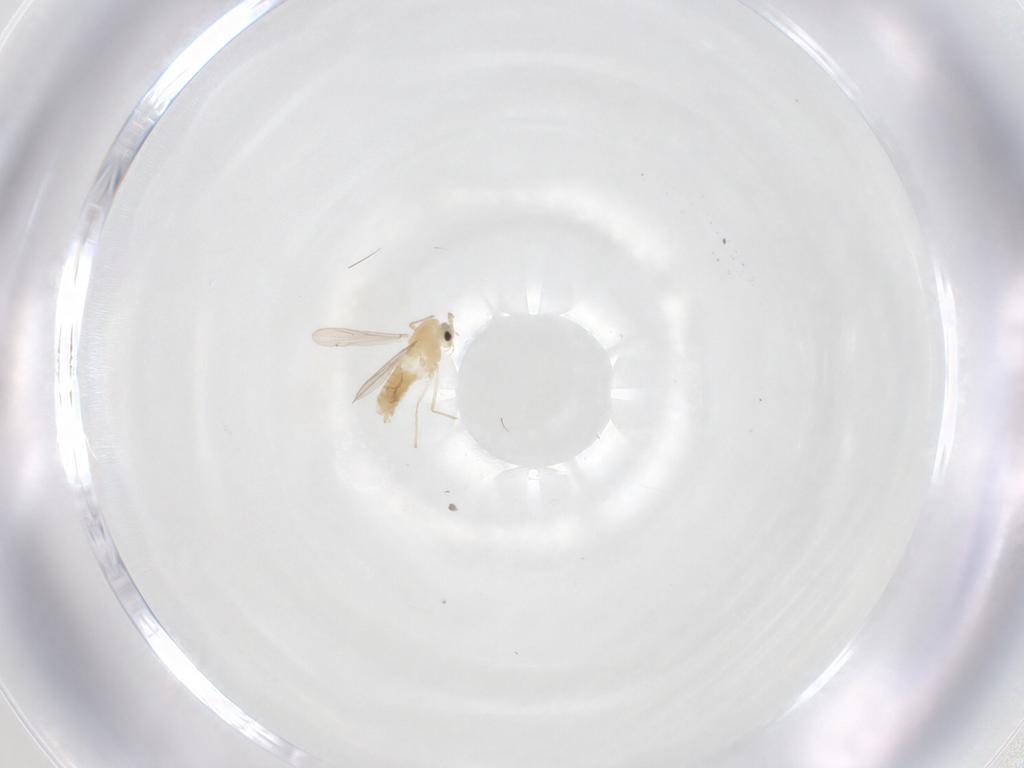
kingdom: Animalia
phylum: Arthropoda
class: Insecta
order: Diptera
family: Chironomidae
